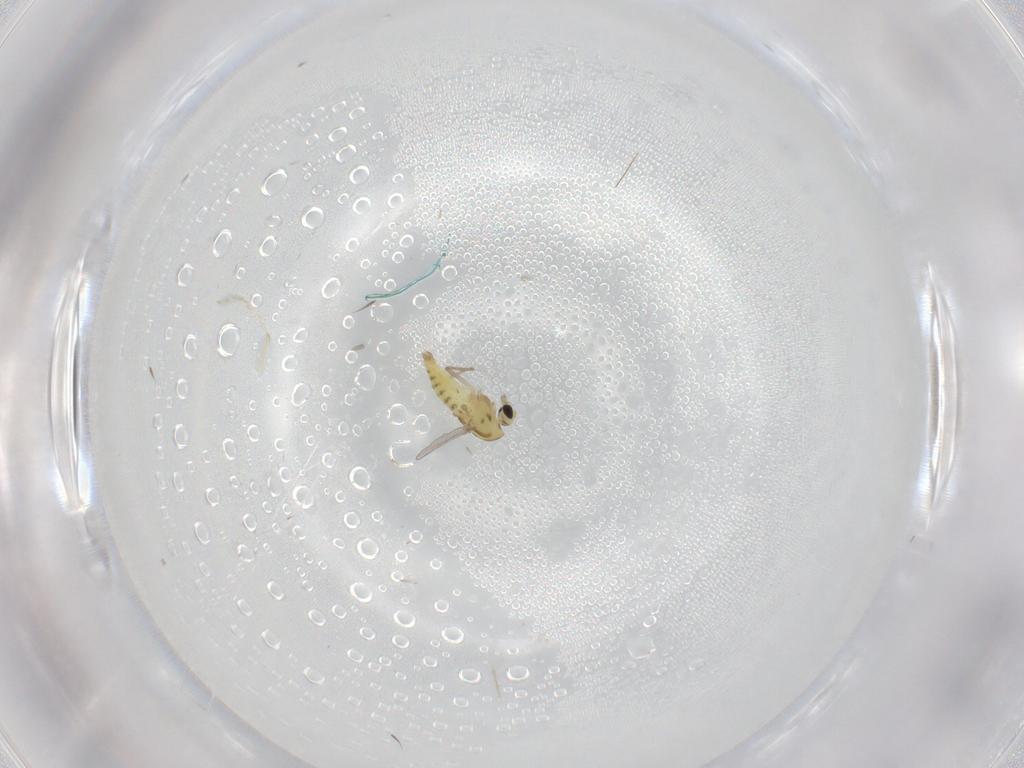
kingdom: Animalia
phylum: Arthropoda
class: Insecta
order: Diptera
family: Chironomidae
